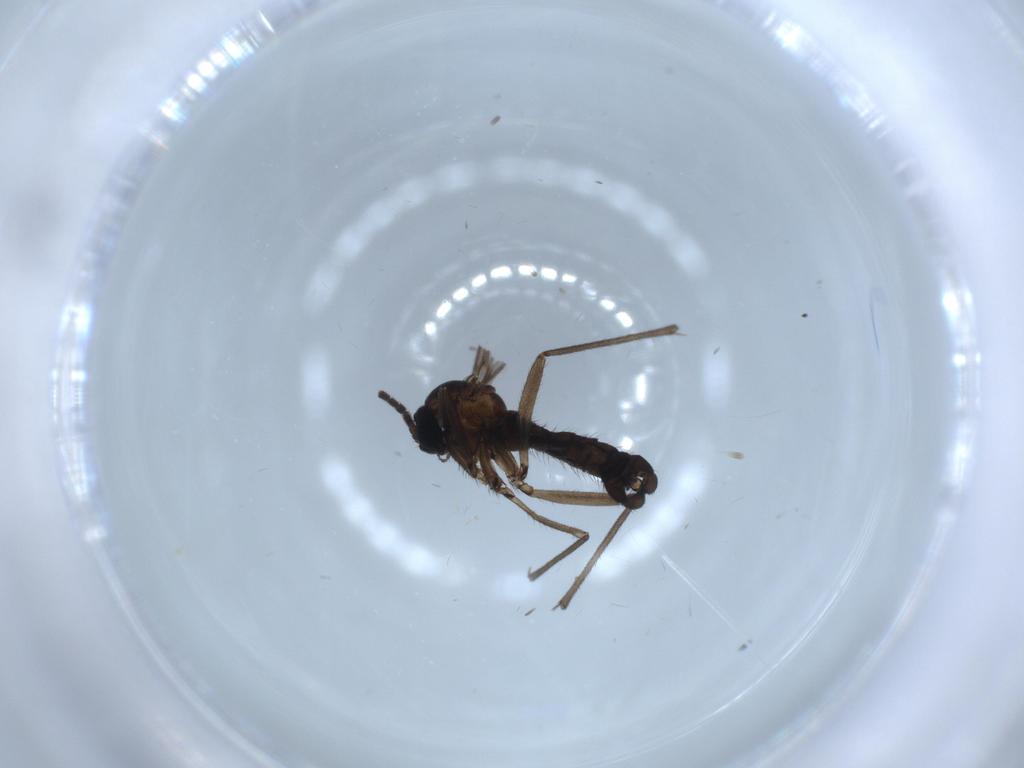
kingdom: Animalia
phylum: Arthropoda
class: Insecta
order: Diptera
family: Sciaridae
